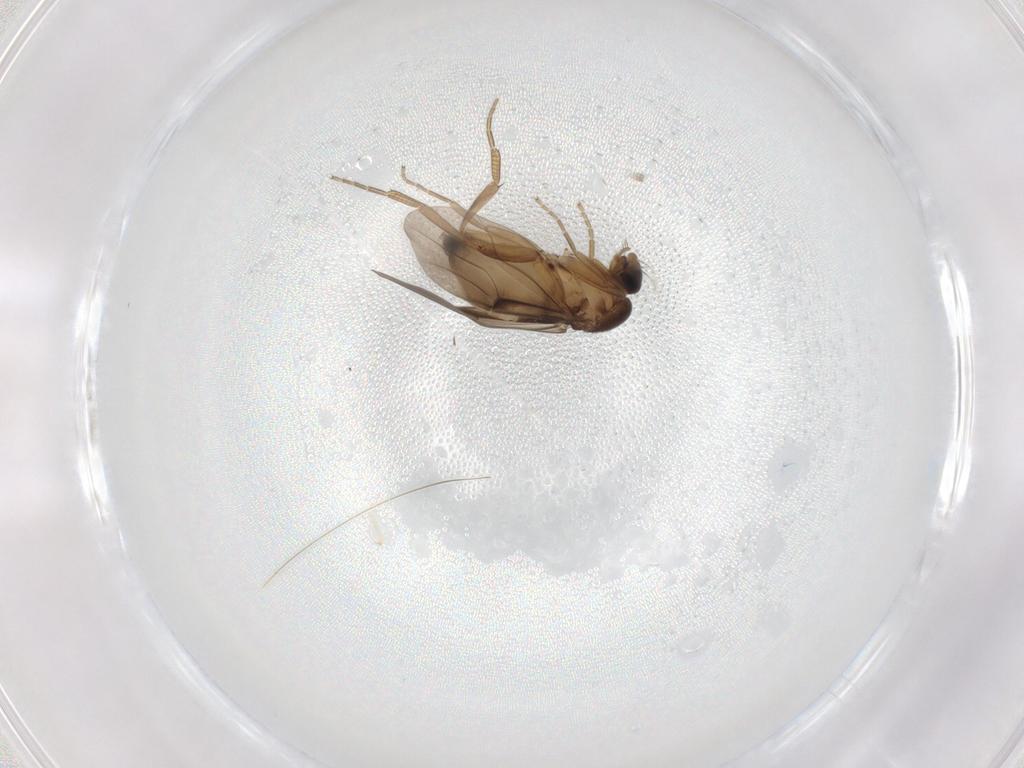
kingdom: Animalia
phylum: Arthropoda
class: Insecta
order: Diptera
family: Phoridae
